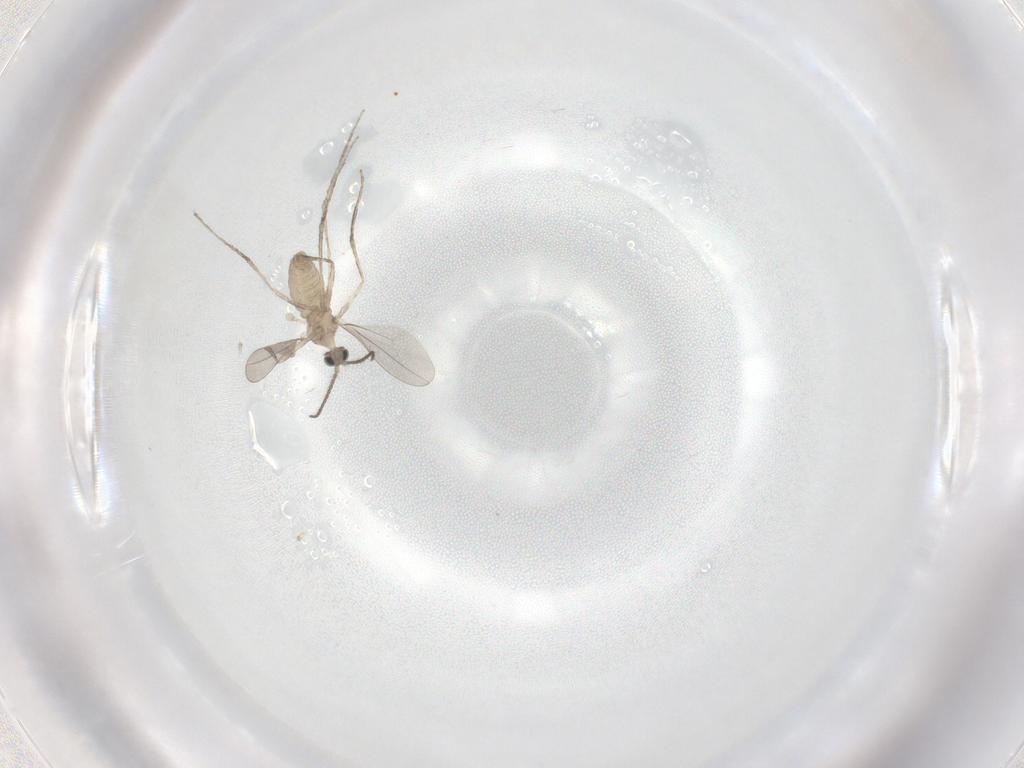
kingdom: Animalia
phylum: Arthropoda
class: Insecta
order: Diptera
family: Cecidomyiidae
